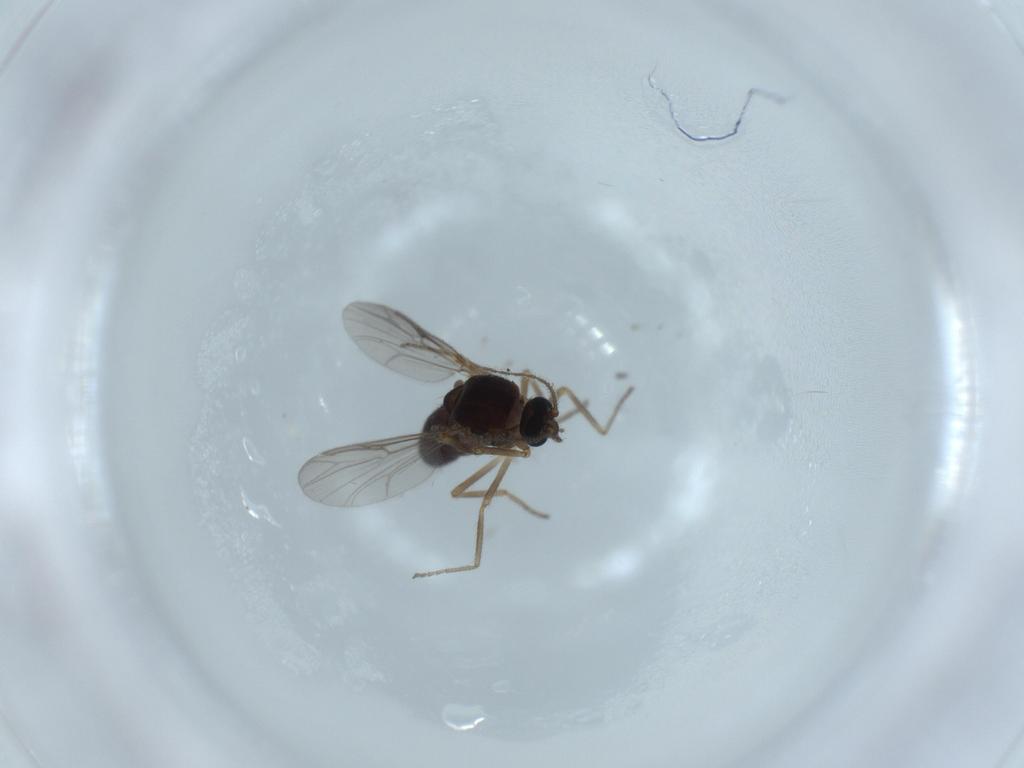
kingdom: Animalia
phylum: Arthropoda
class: Insecta
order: Diptera
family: Ceratopogonidae
